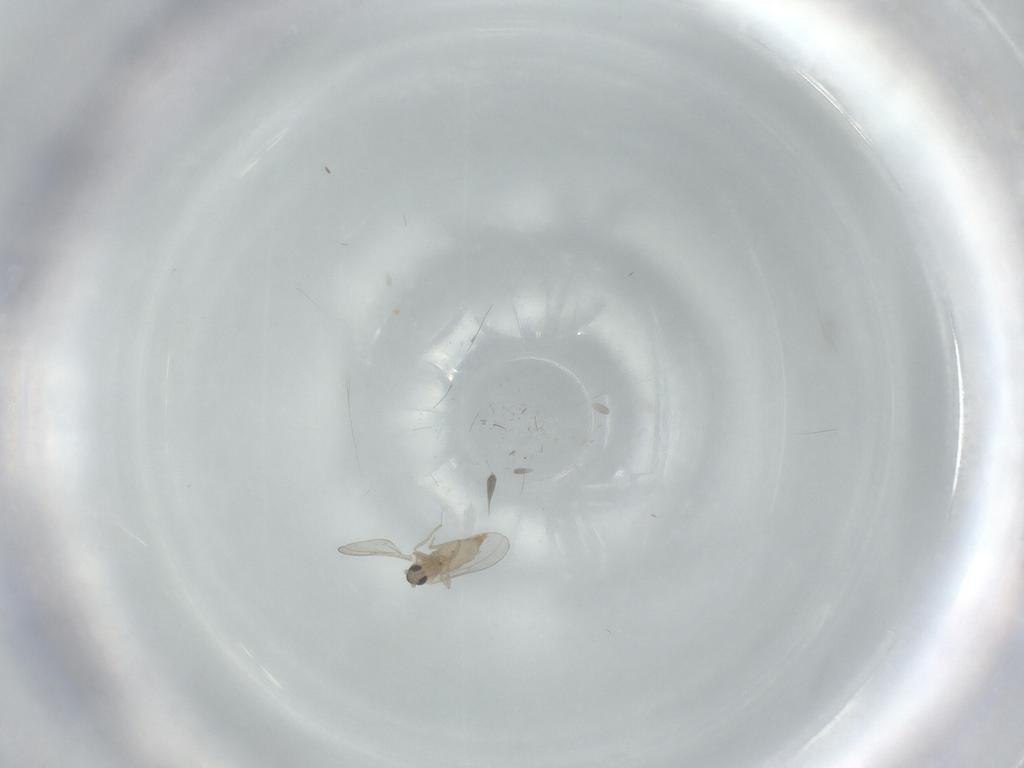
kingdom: Animalia
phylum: Arthropoda
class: Insecta
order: Diptera
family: Cecidomyiidae
